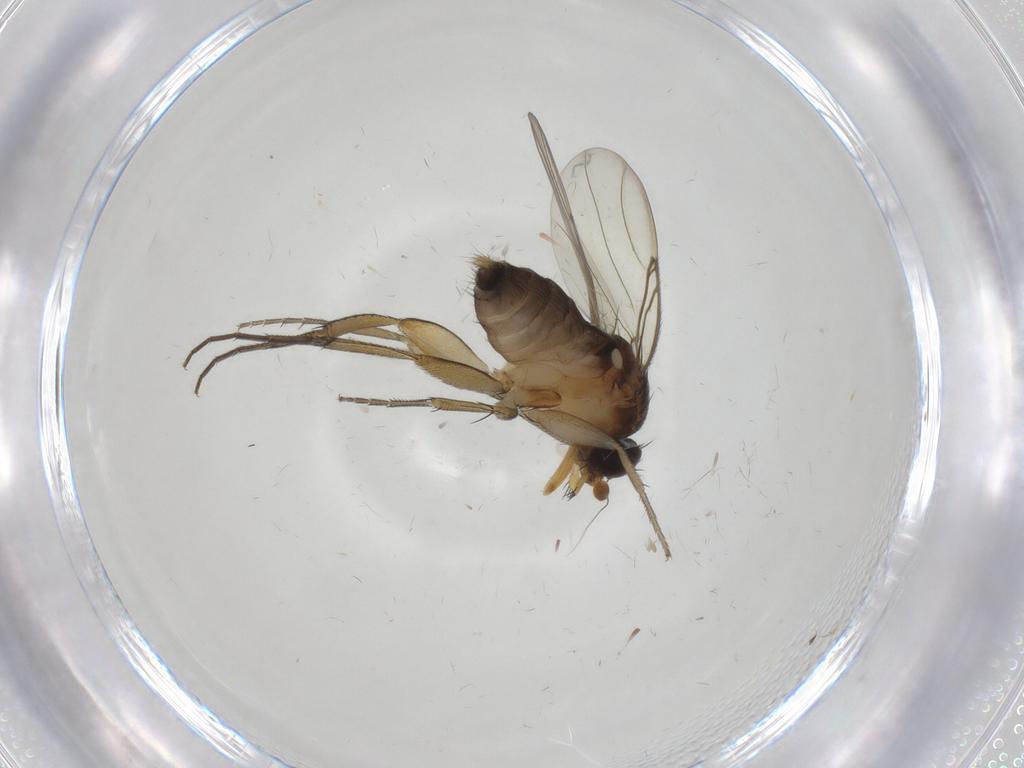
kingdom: Animalia
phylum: Arthropoda
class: Insecta
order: Diptera
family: Phoridae
